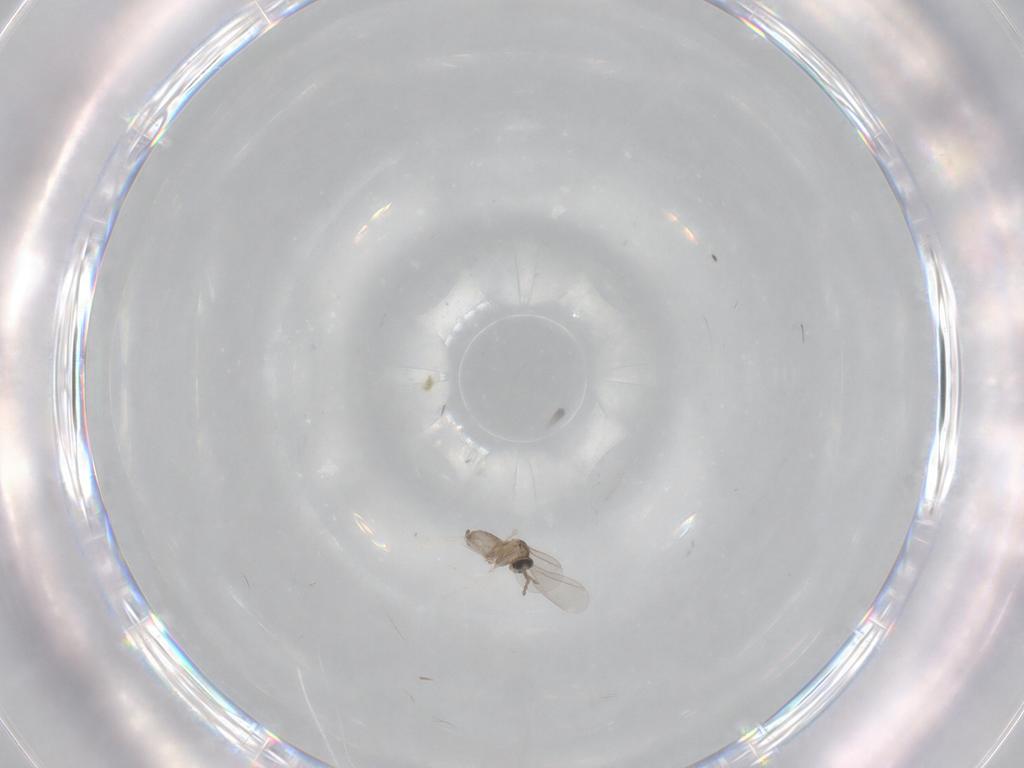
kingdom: Animalia
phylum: Arthropoda
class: Insecta
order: Diptera
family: Cecidomyiidae
